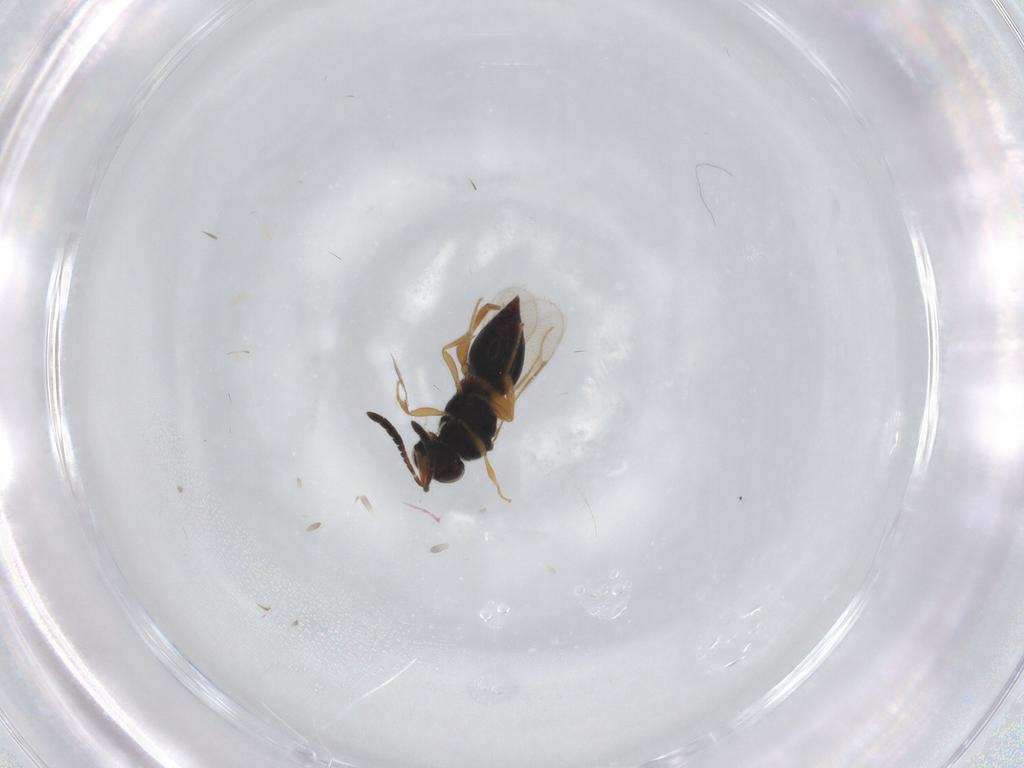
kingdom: Animalia
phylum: Arthropoda
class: Insecta
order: Hymenoptera
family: Ceraphronidae
